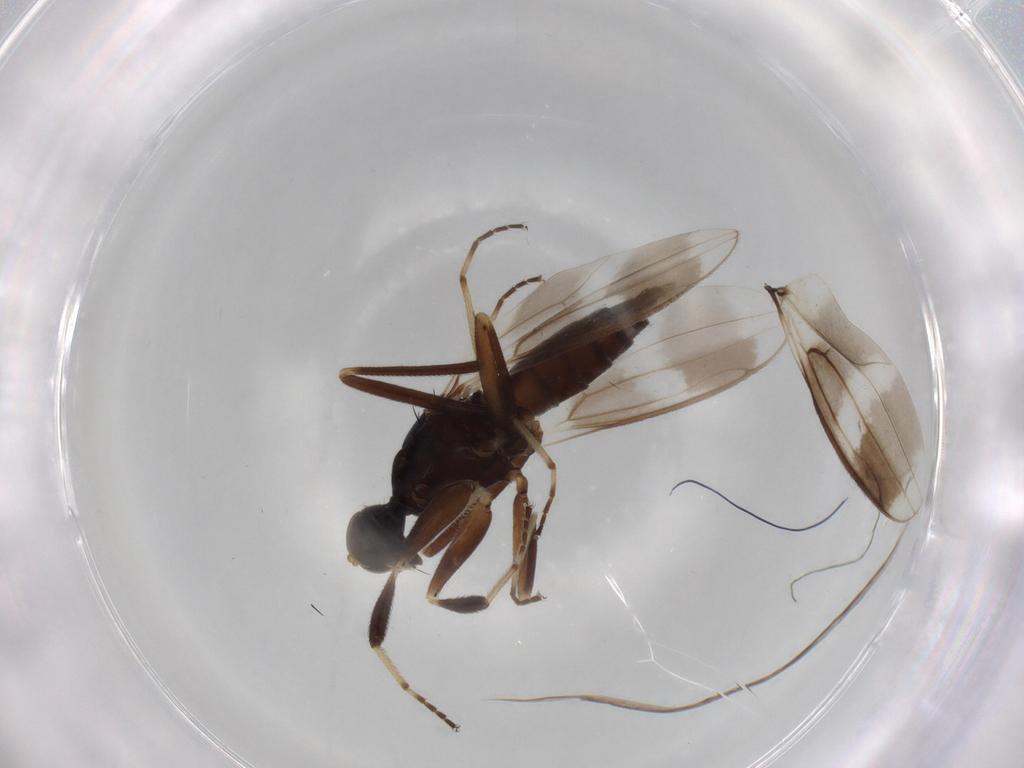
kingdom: Animalia
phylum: Arthropoda
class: Insecta
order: Diptera
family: Hybotidae
